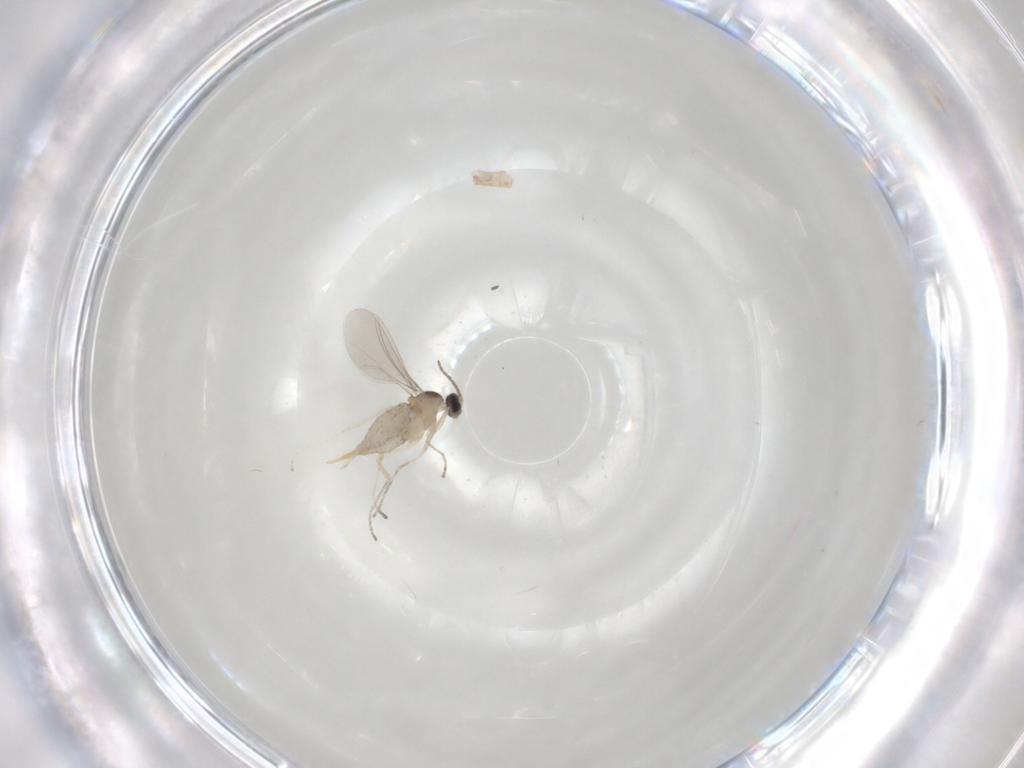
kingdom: Animalia
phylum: Arthropoda
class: Insecta
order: Diptera
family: Cecidomyiidae
